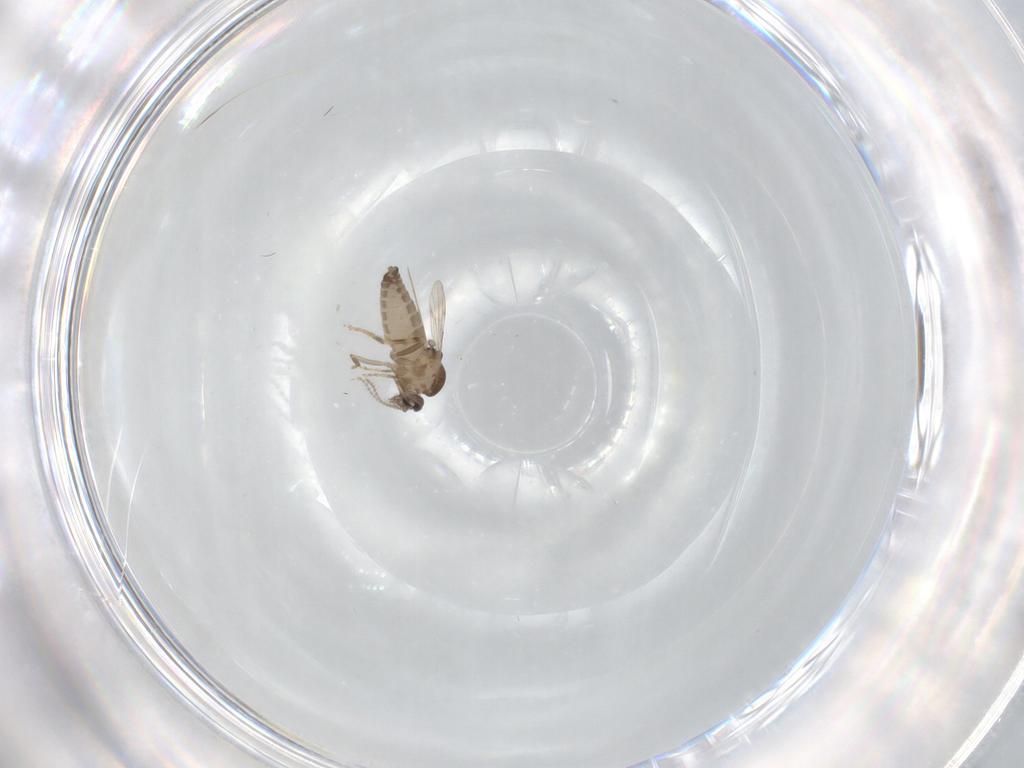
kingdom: Animalia
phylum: Arthropoda
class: Insecta
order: Diptera
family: Ceratopogonidae
